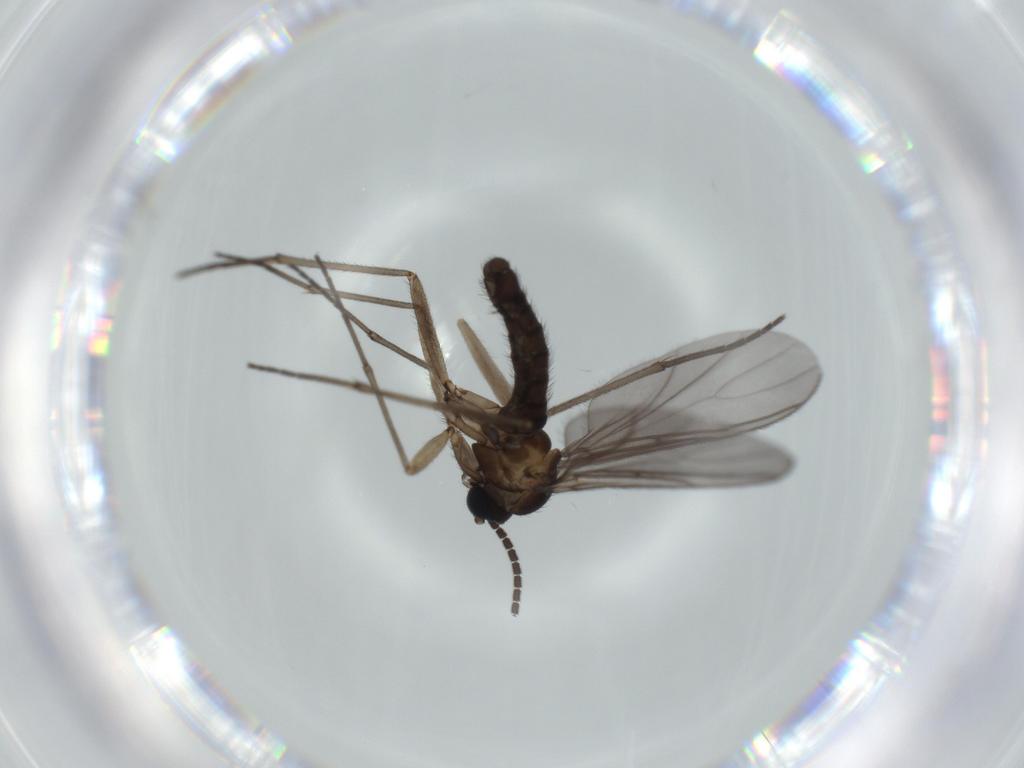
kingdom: Animalia
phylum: Arthropoda
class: Insecta
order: Diptera
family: Sciaridae
